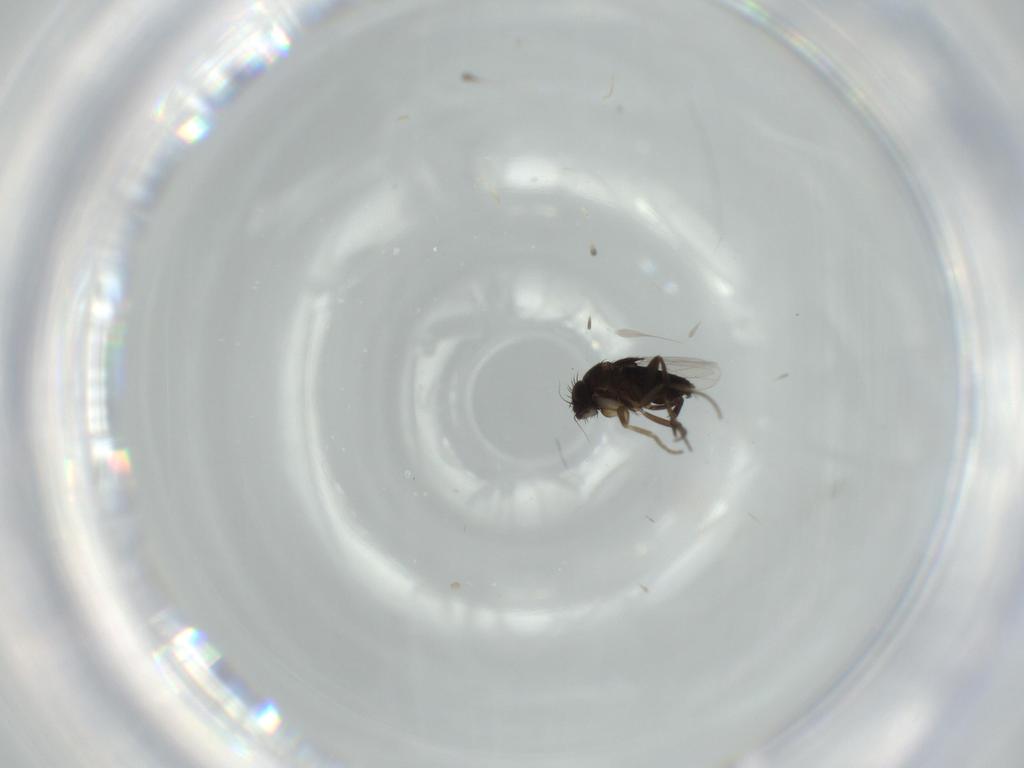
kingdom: Animalia
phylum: Arthropoda
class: Insecta
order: Diptera
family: Phoridae
